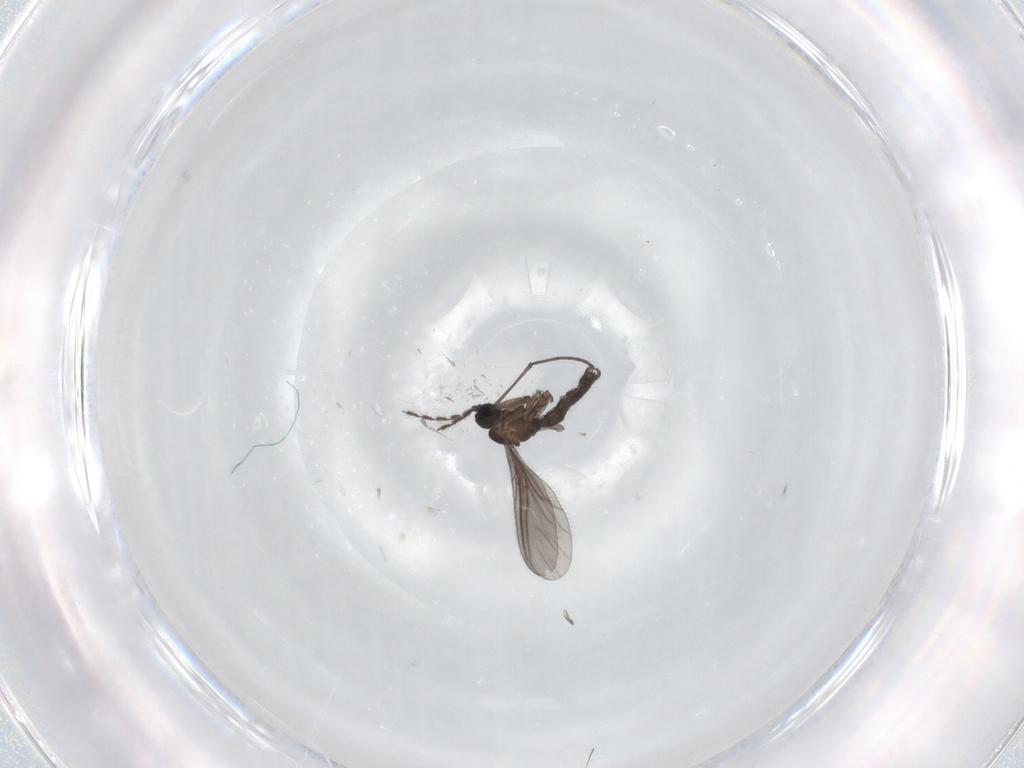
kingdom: Animalia
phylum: Arthropoda
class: Insecta
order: Diptera
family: Sciaridae
